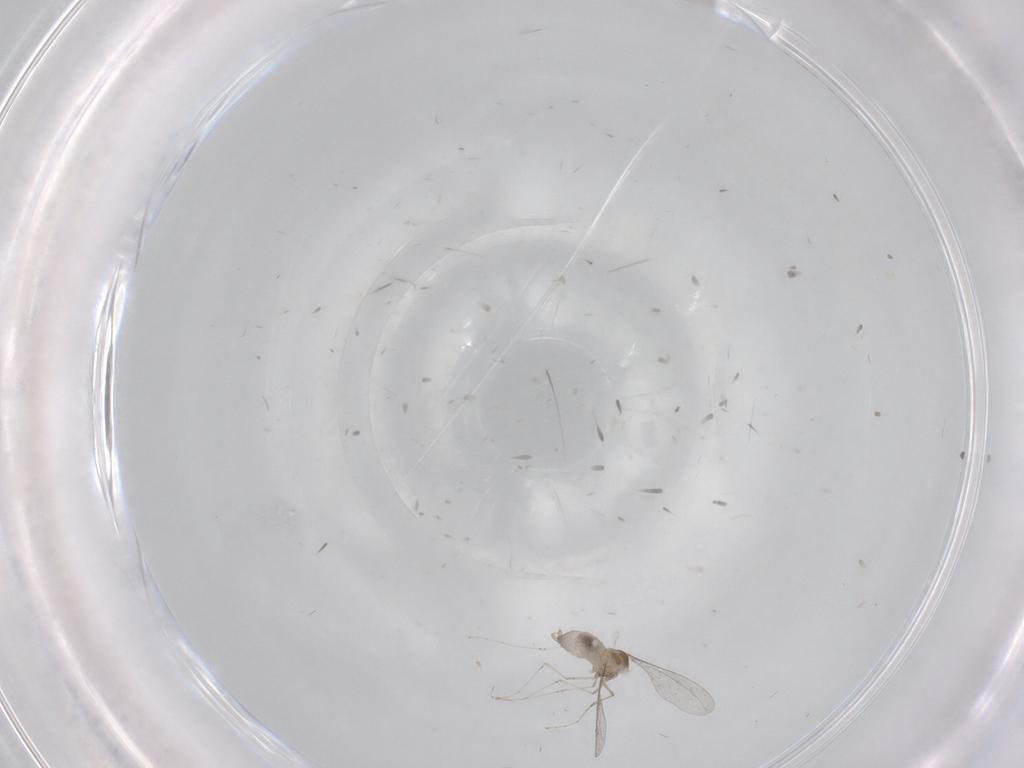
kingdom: Animalia
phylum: Arthropoda
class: Insecta
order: Diptera
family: Cecidomyiidae
